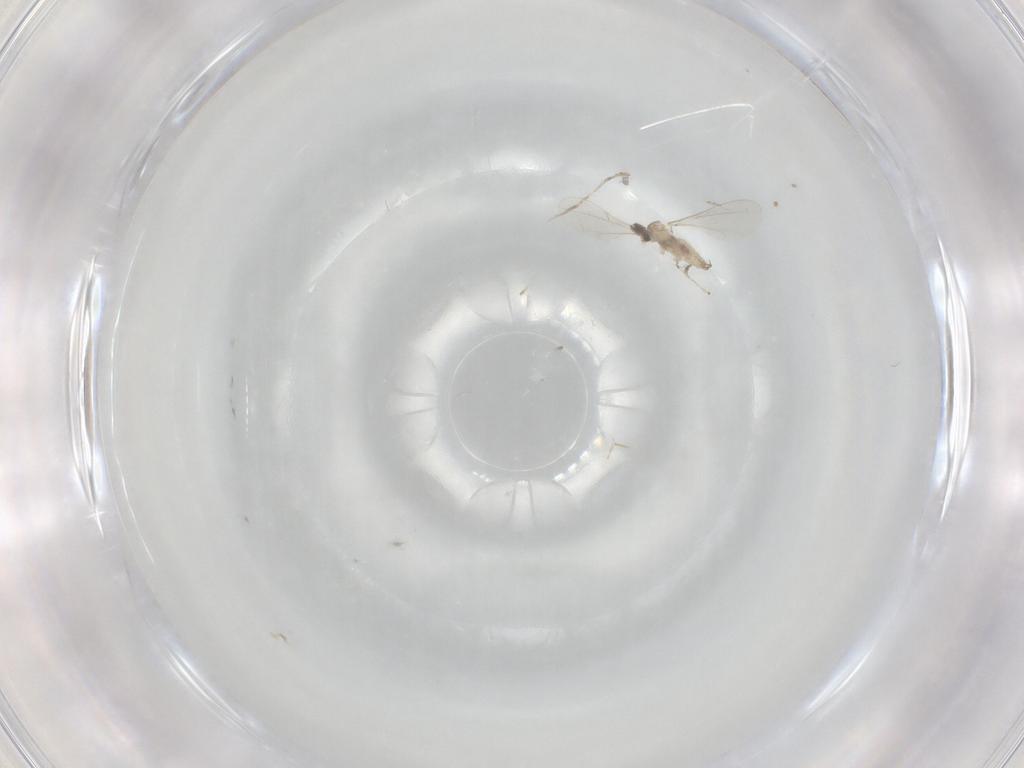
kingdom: Animalia
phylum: Arthropoda
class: Insecta
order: Diptera
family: Cecidomyiidae
